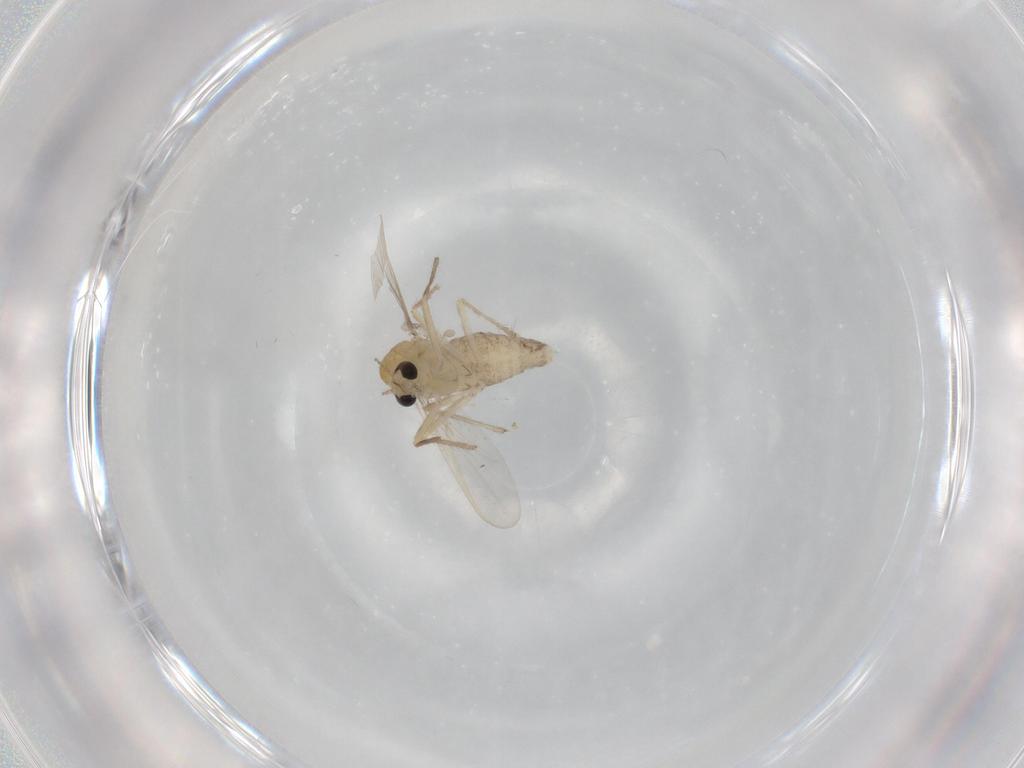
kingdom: Animalia
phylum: Arthropoda
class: Insecta
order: Diptera
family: Chironomidae
